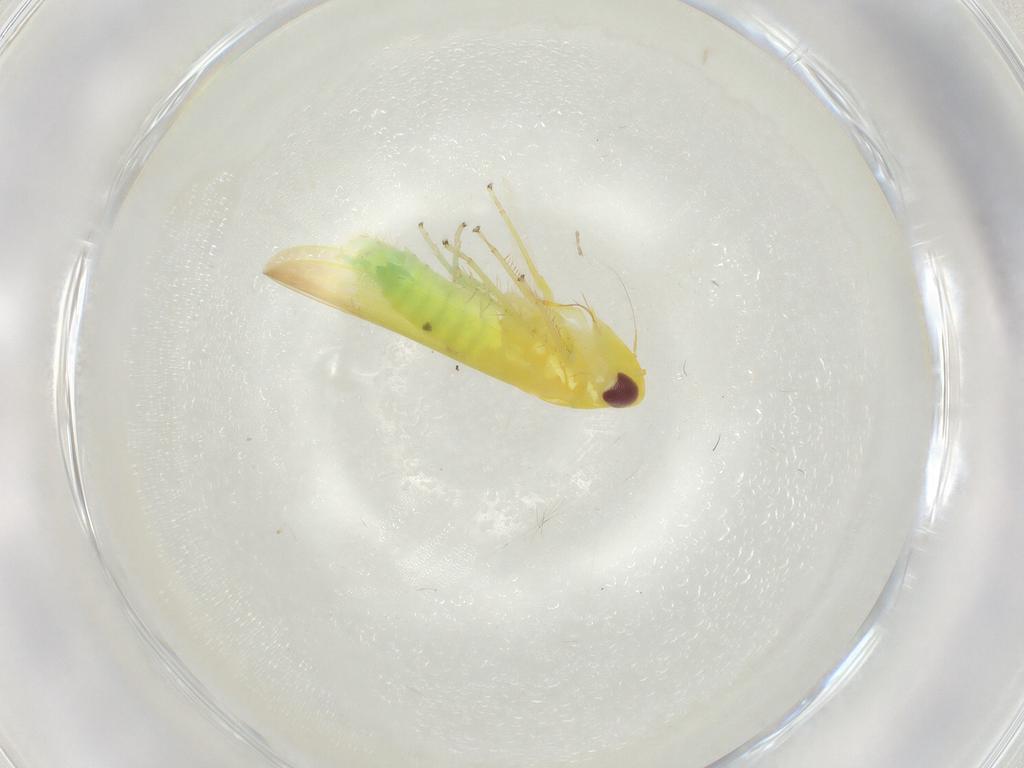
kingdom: Animalia
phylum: Arthropoda
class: Insecta
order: Hemiptera
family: Cicadellidae
